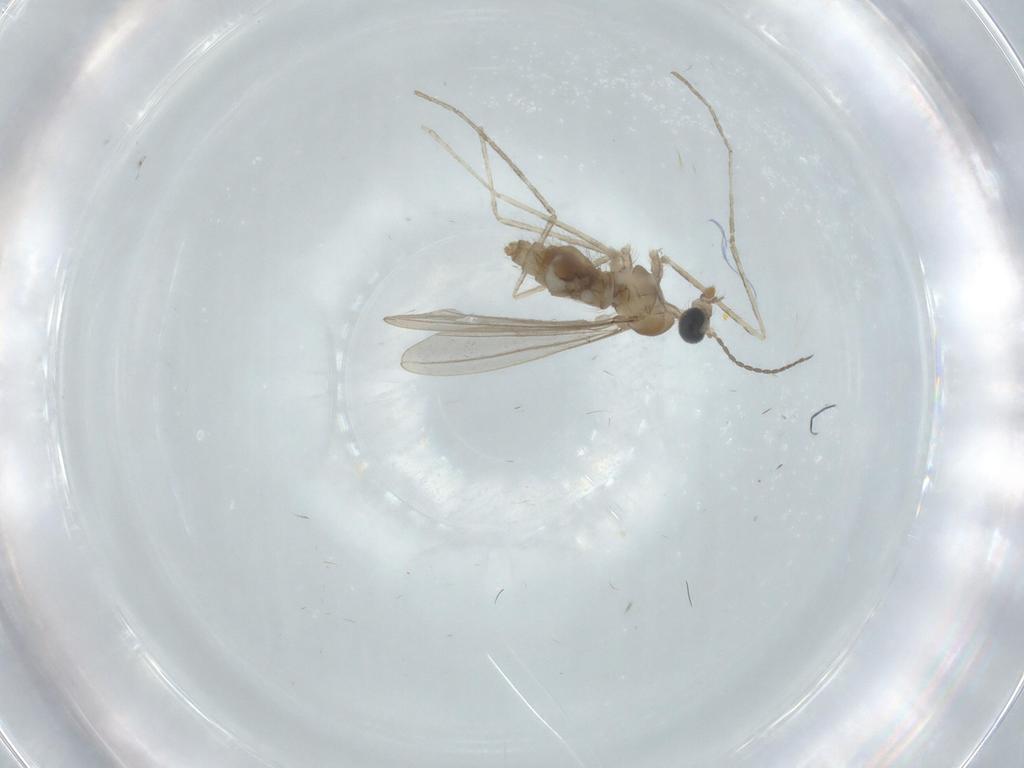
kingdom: Animalia
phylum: Arthropoda
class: Insecta
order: Diptera
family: Cecidomyiidae
